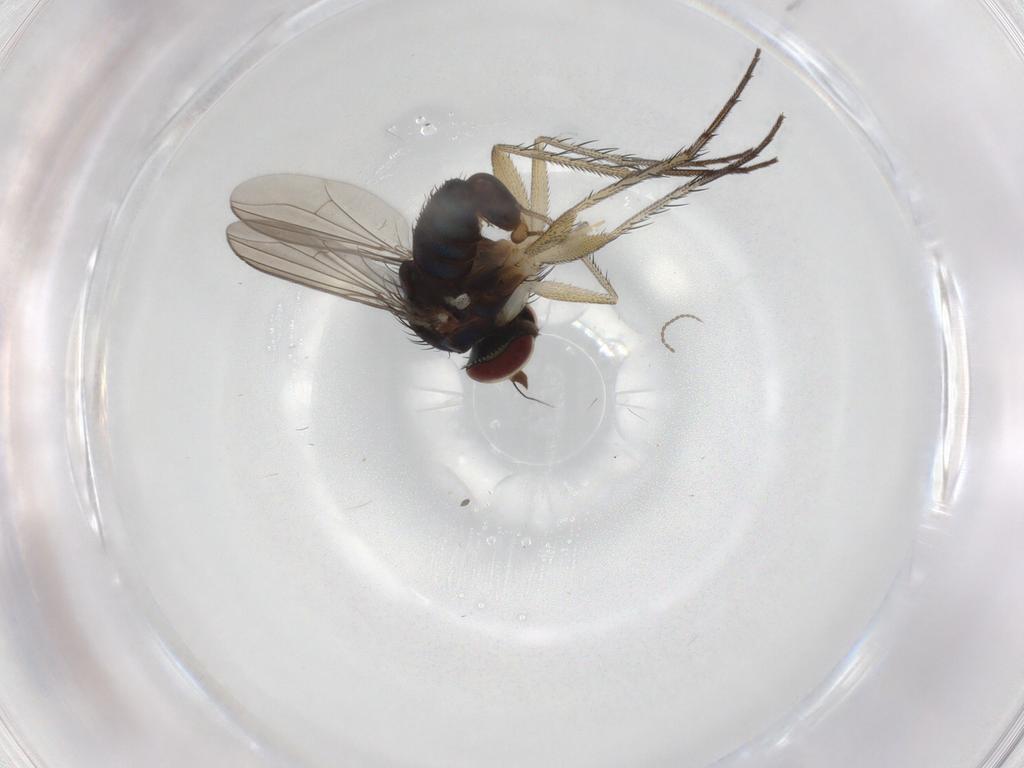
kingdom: Animalia
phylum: Arthropoda
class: Insecta
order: Diptera
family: Dolichopodidae
